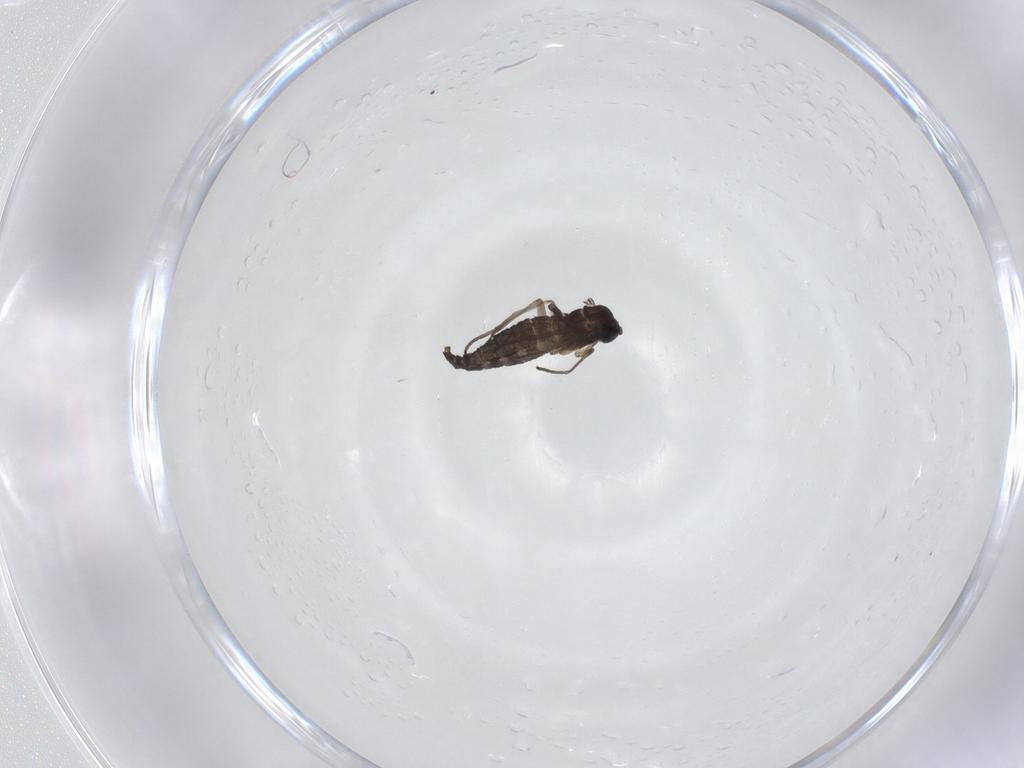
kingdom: Animalia
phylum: Arthropoda
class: Insecta
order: Diptera
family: Sciaridae
